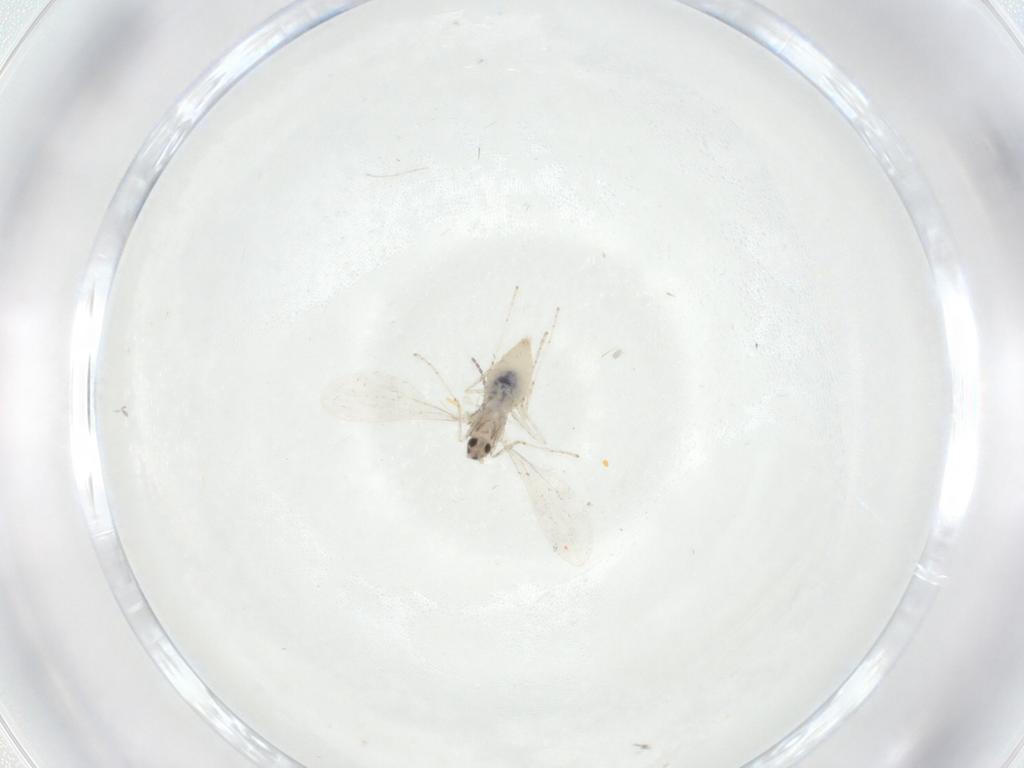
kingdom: Animalia
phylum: Arthropoda
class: Insecta
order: Diptera
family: Cecidomyiidae
